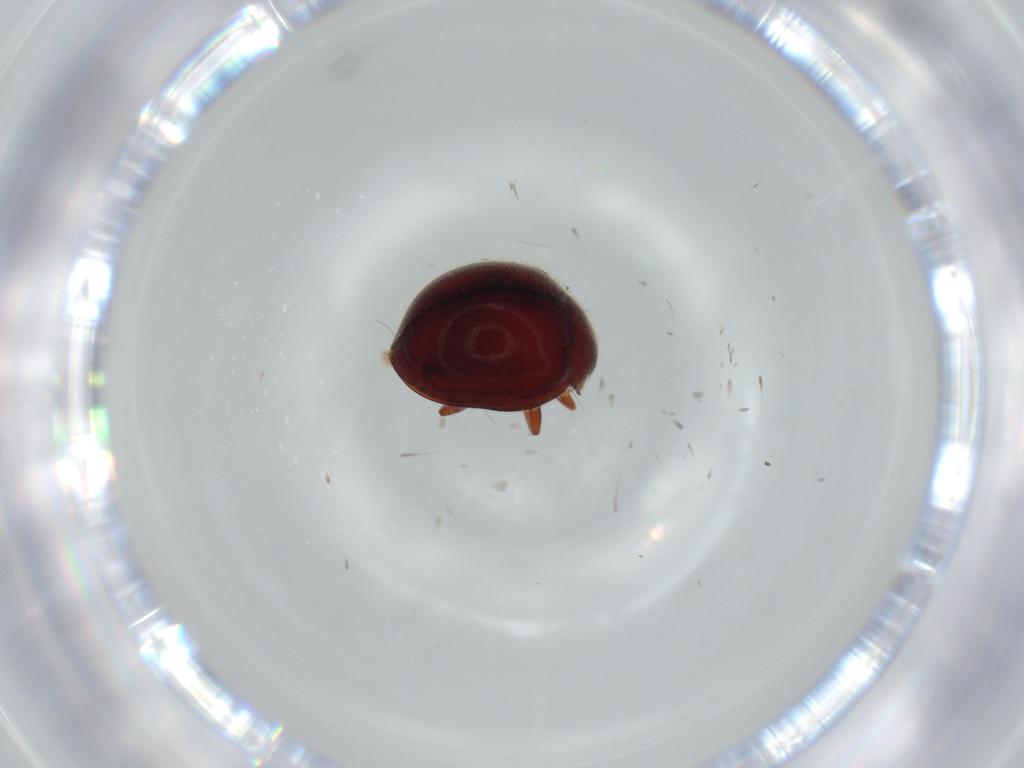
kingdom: Animalia
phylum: Arthropoda
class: Insecta
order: Coleoptera
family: Coccinellidae
